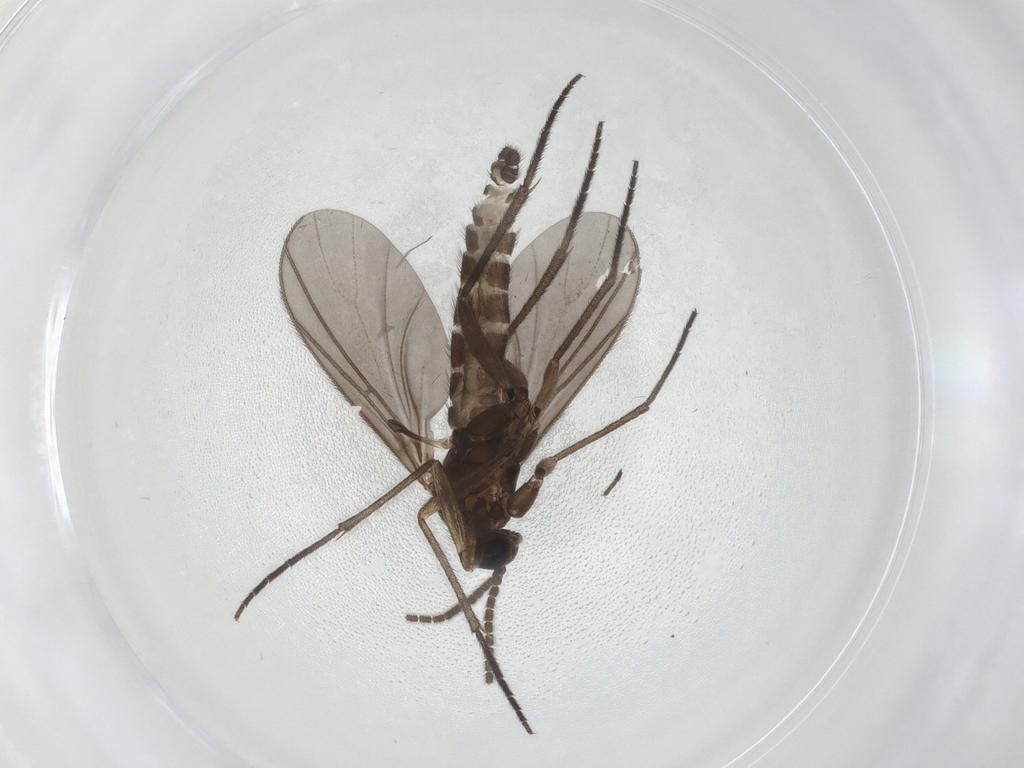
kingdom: Animalia
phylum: Arthropoda
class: Insecta
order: Diptera
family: Sciaridae
